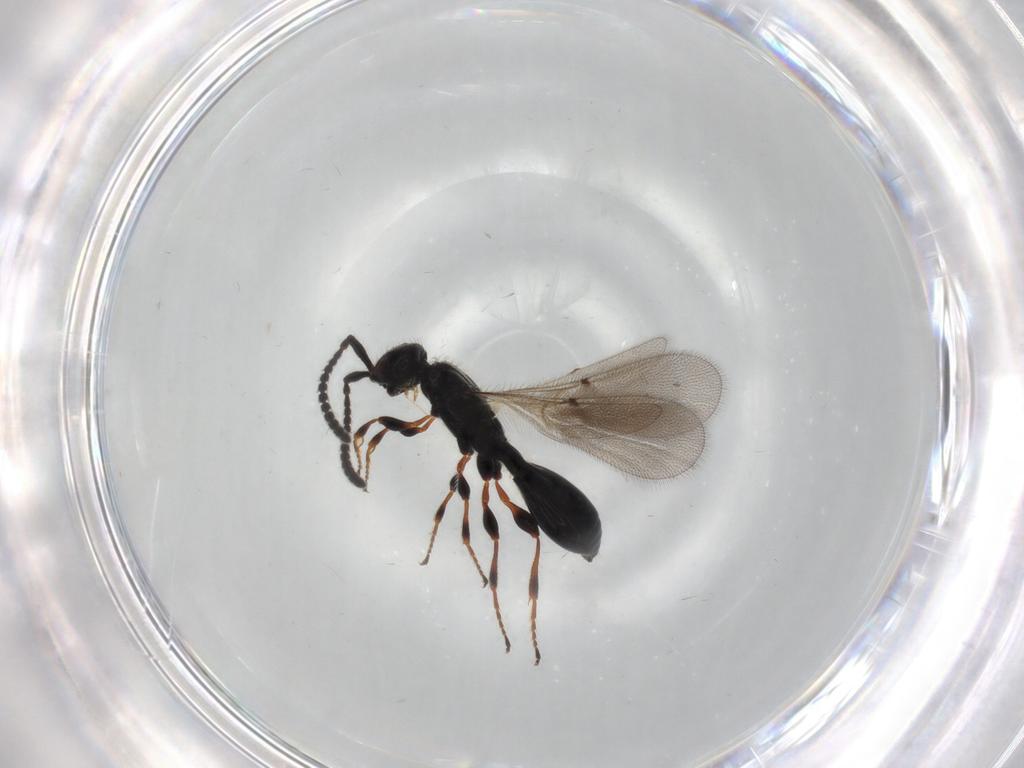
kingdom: Animalia
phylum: Arthropoda
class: Insecta
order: Hymenoptera
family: Diapriidae
